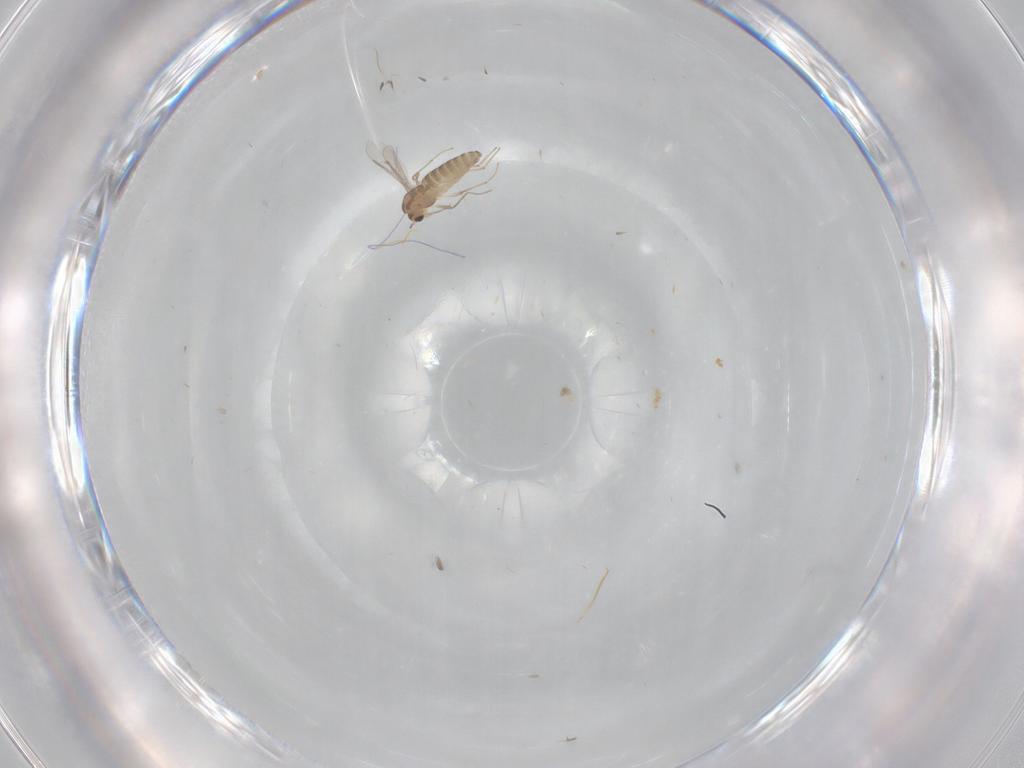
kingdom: Animalia
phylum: Arthropoda
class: Insecta
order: Diptera
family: Chironomidae
